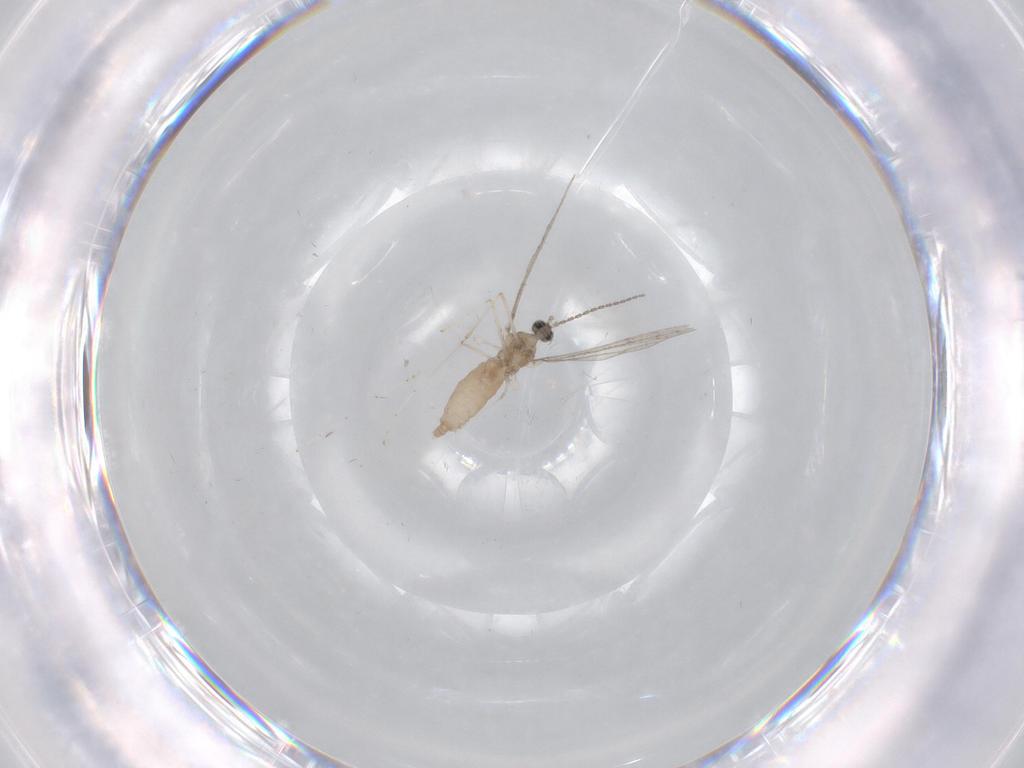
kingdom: Animalia
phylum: Arthropoda
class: Insecta
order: Diptera
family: Cecidomyiidae
